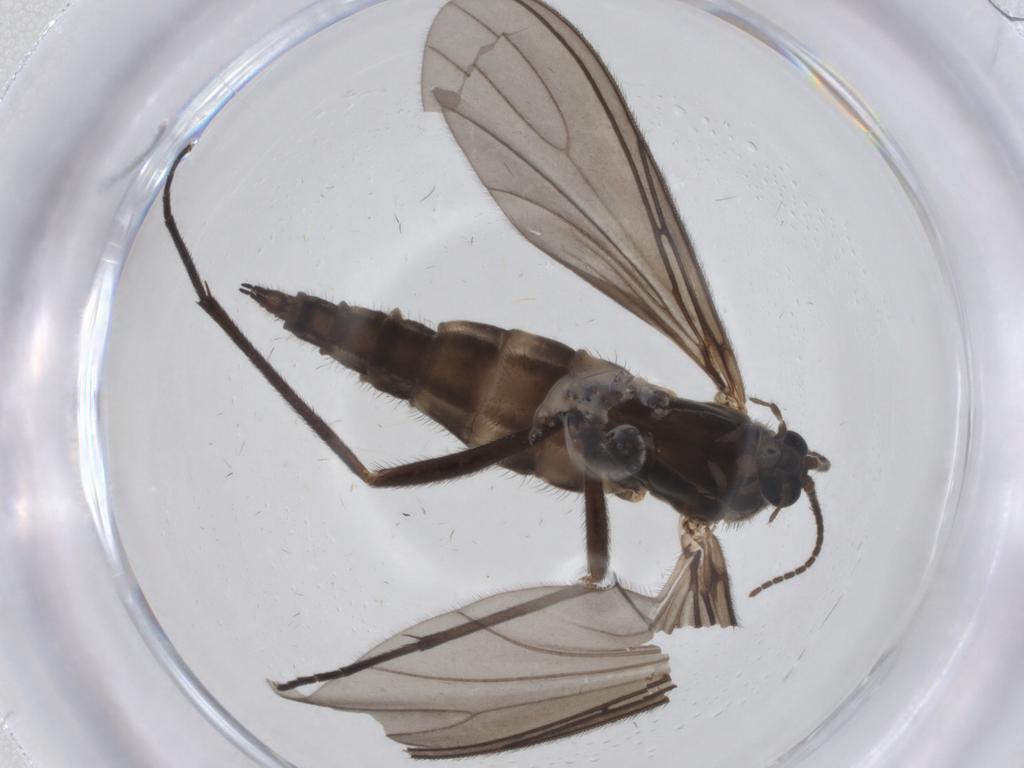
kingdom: Animalia
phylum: Arthropoda
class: Insecta
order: Diptera
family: Sciaridae
